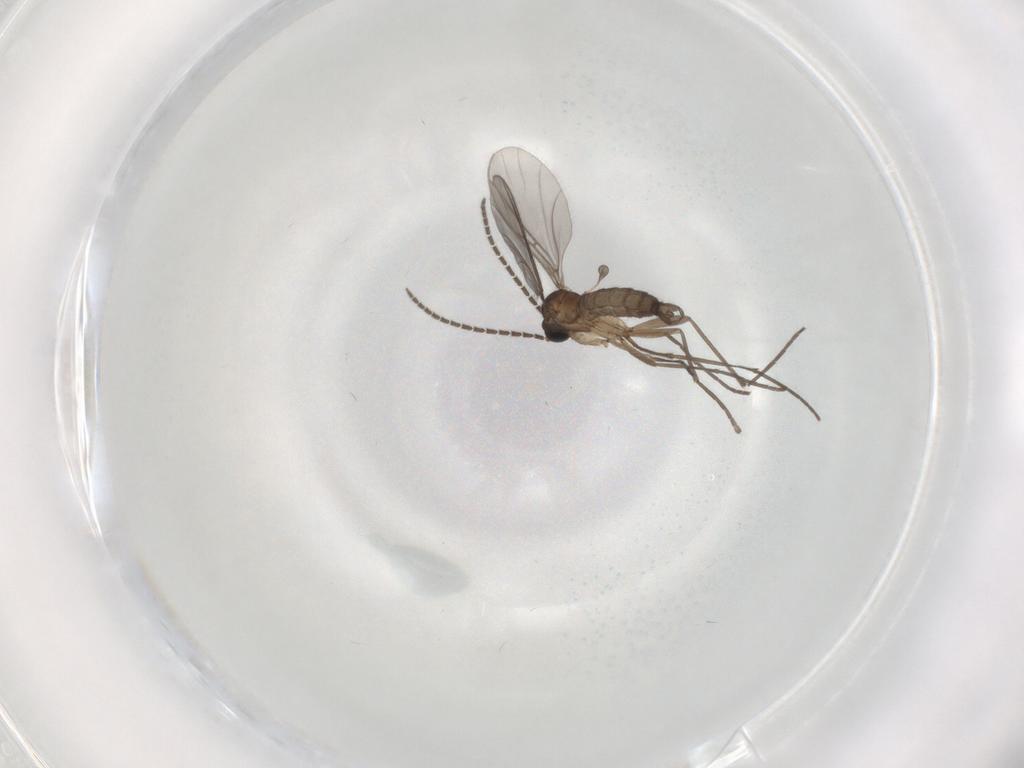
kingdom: Animalia
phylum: Arthropoda
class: Insecta
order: Diptera
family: Sciaridae
